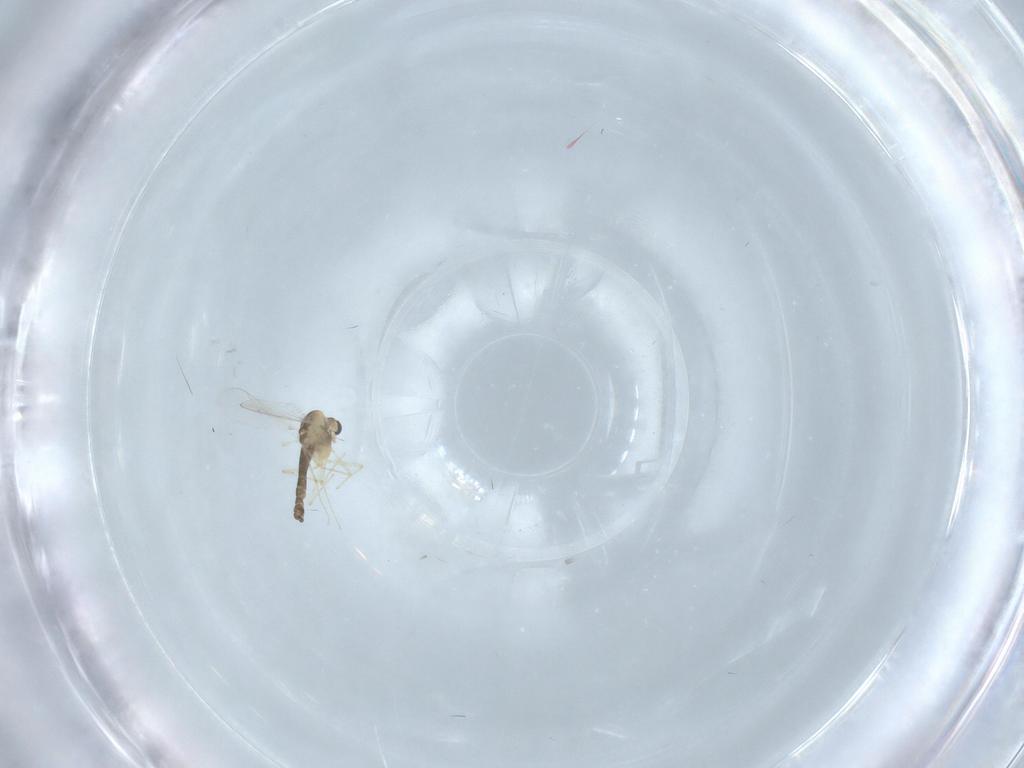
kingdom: Animalia
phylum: Arthropoda
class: Insecta
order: Diptera
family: Chironomidae
